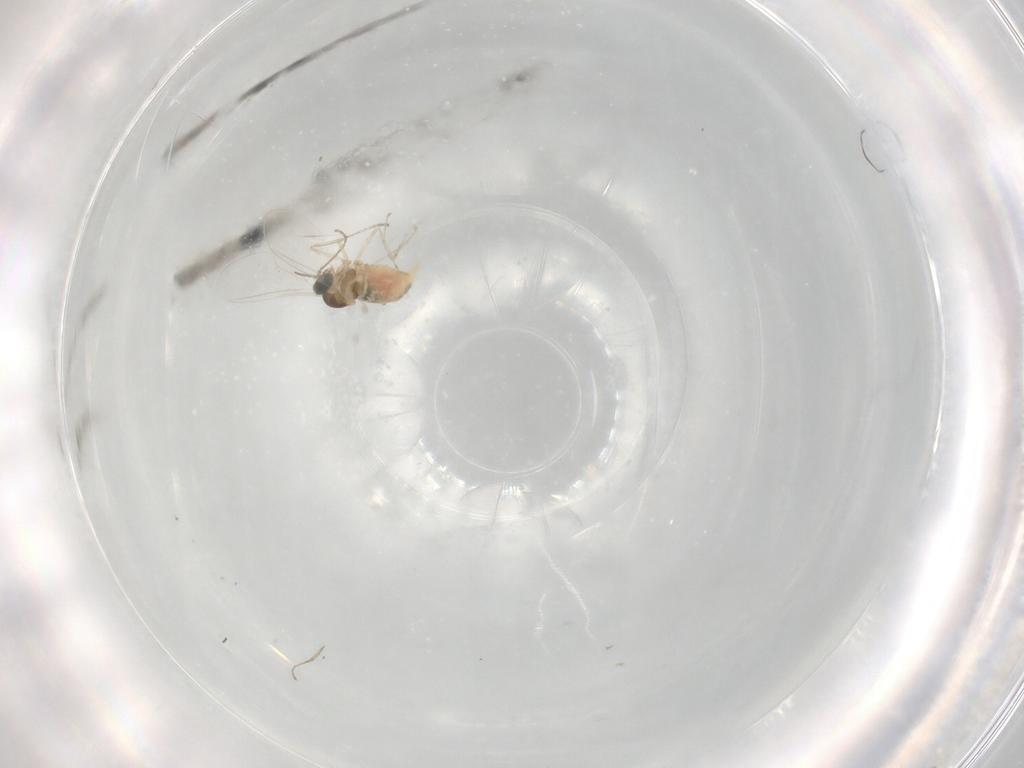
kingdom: Animalia
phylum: Arthropoda
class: Insecta
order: Diptera
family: Cecidomyiidae
